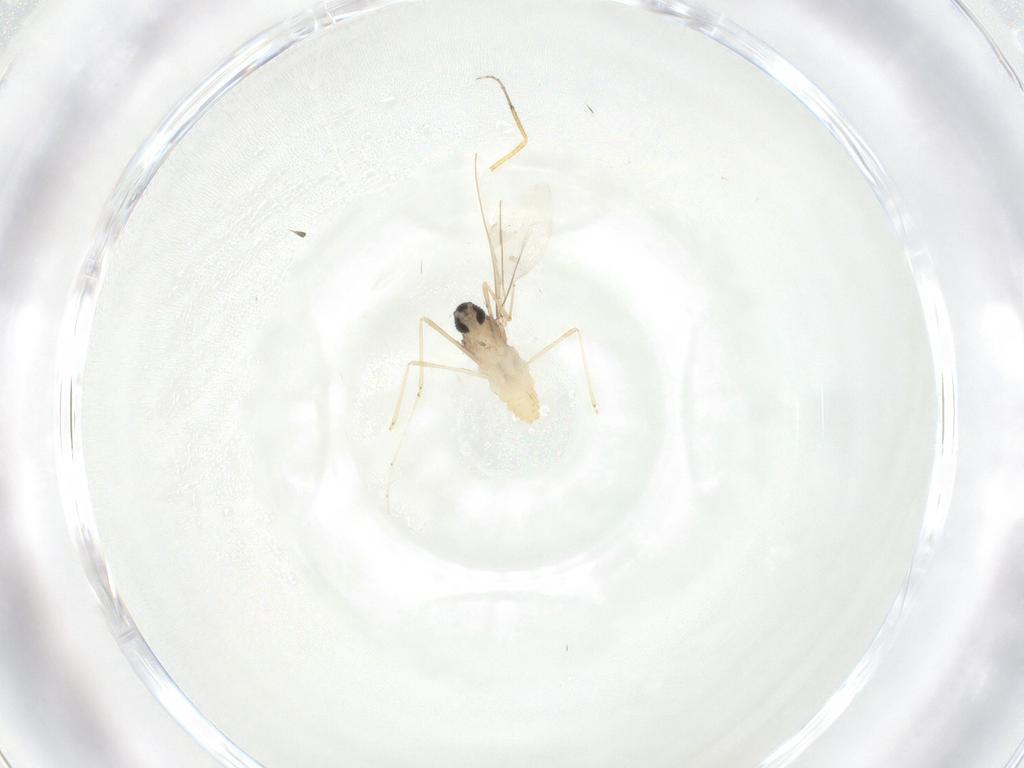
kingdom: Animalia
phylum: Arthropoda
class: Insecta
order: Diptera
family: Cecidomyiidae
